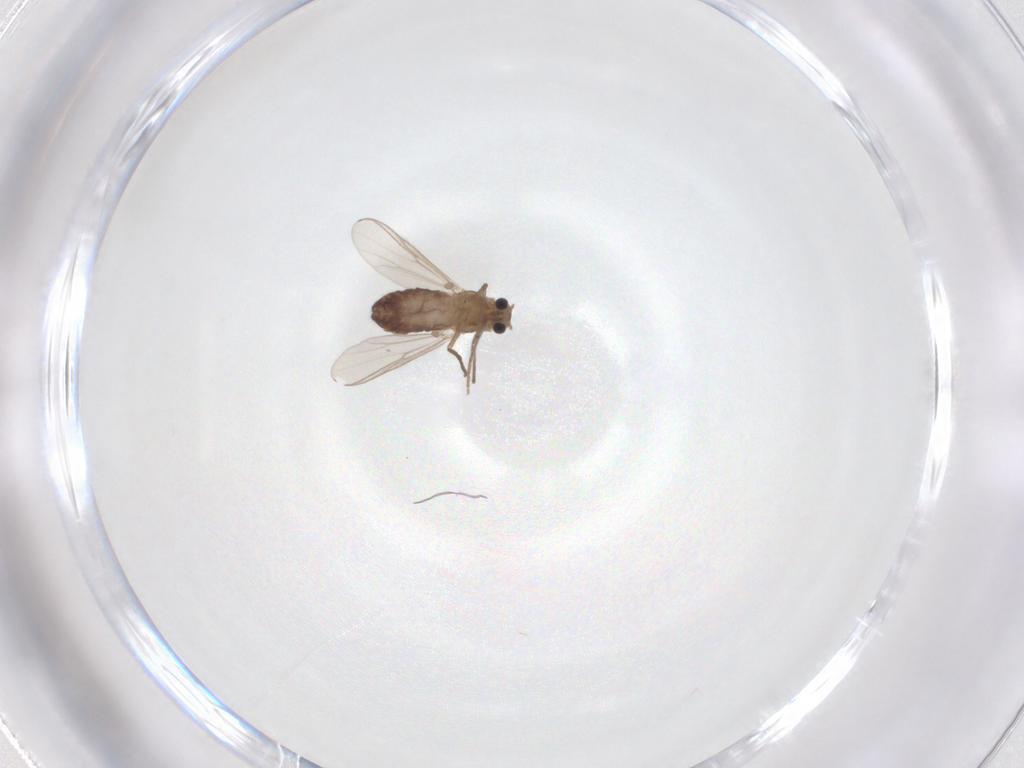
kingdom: Animalia
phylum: Arthropoda
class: Insecta
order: Diptera
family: Chironomidae
